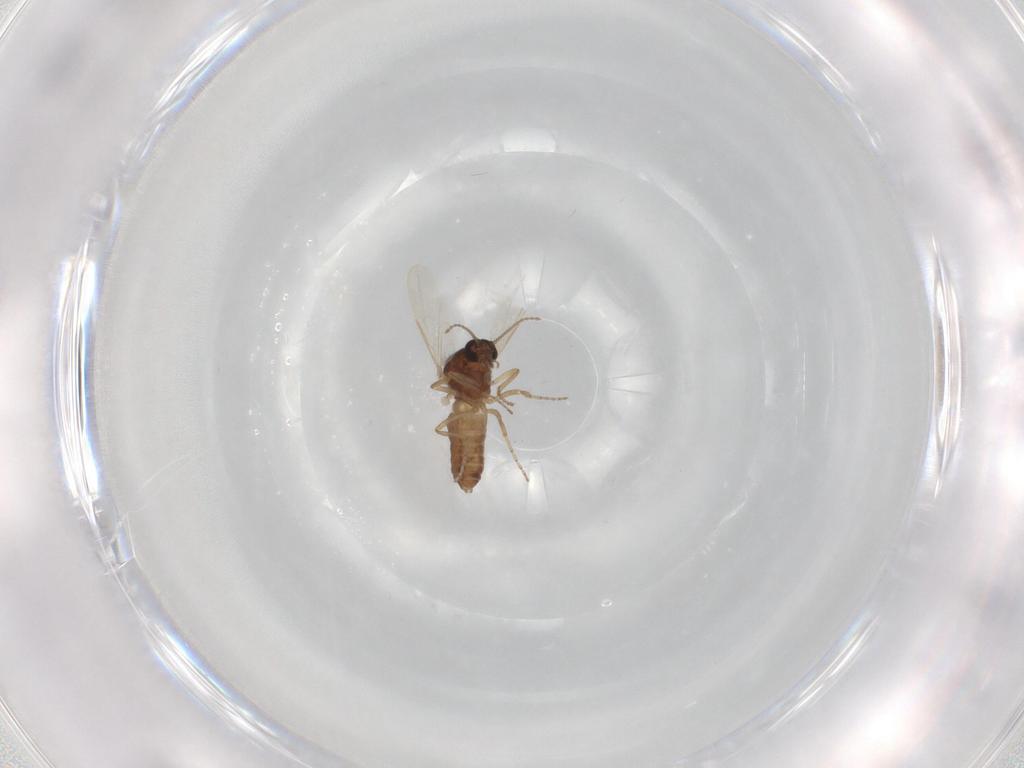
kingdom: Animalia
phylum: Arthropoda
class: Insecta
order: Diptera
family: Ceratopogonidae
